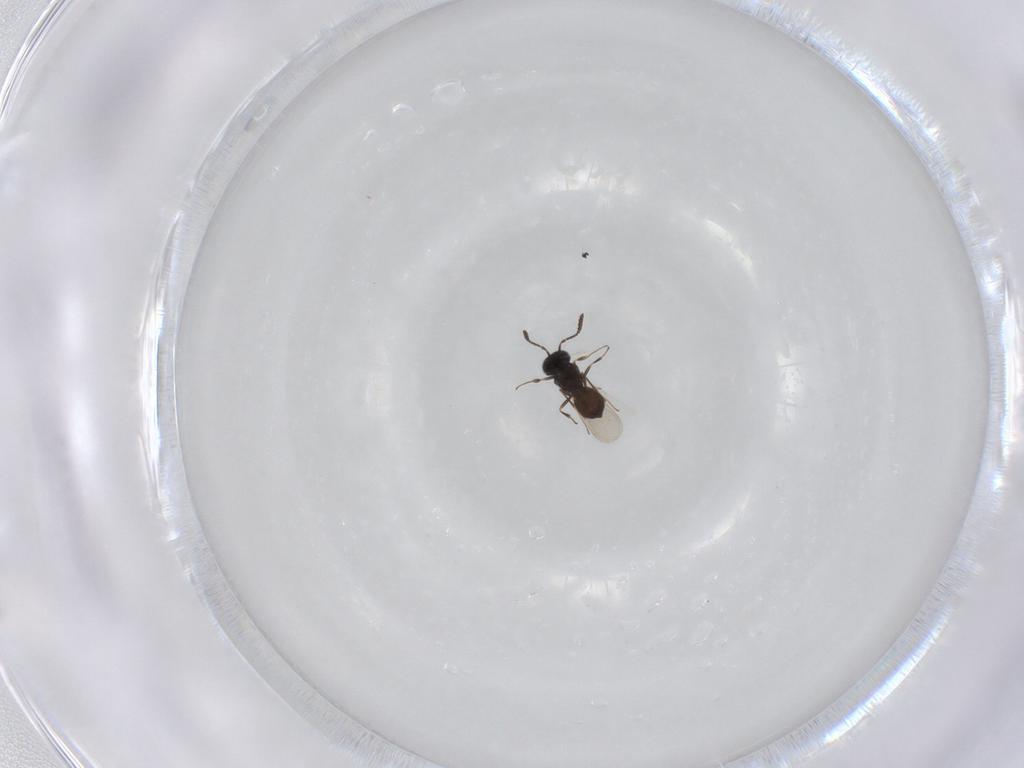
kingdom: Animalia
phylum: Arthropoda
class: Insecta
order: Hymenoptera
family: Scelionidae
